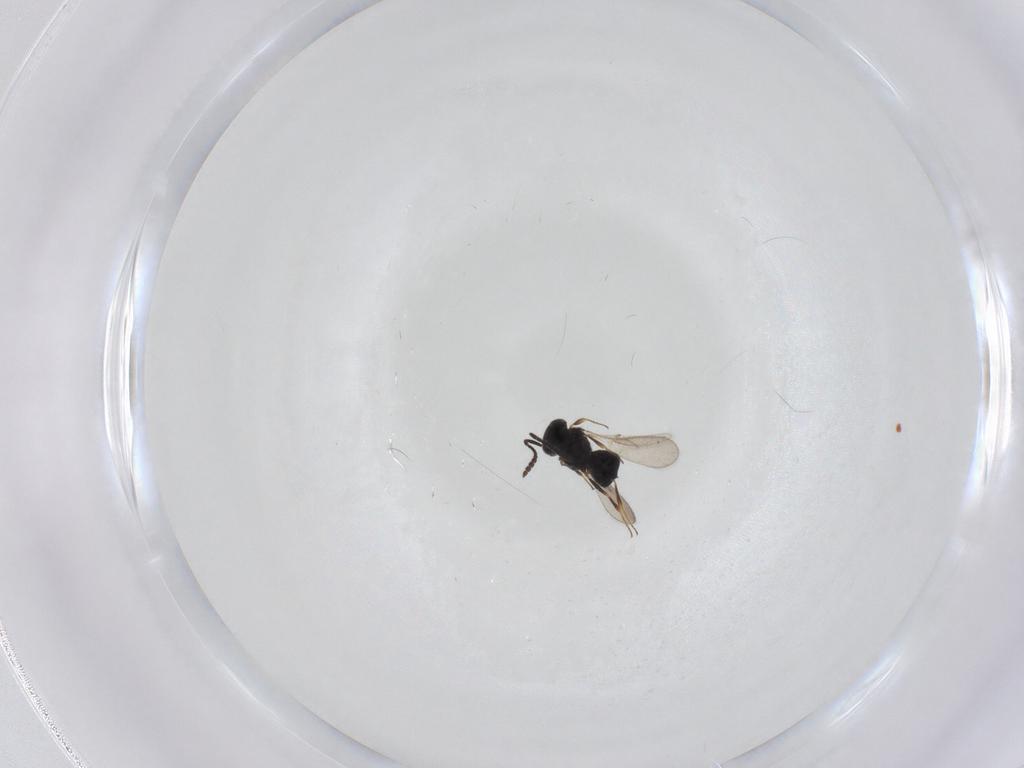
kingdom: Animalia
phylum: Arthropoda
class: Insecta
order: Hymenoptera
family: Scelionidae
